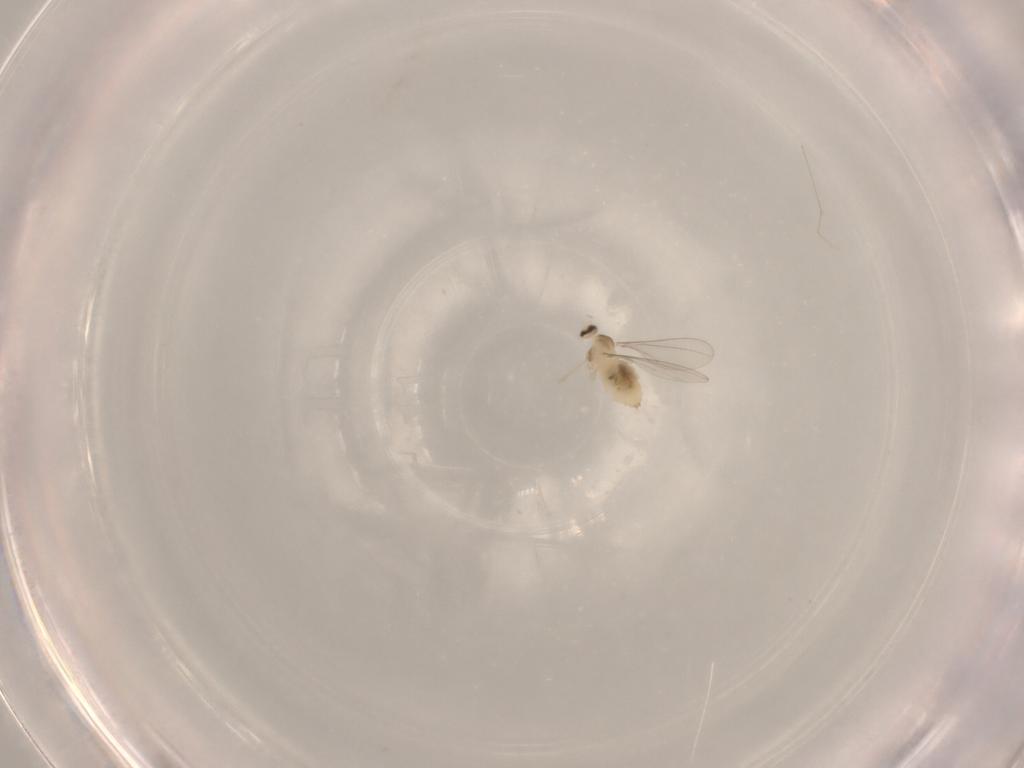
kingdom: Animalia
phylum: Arthropoda
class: Insecta
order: Diptera
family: Cecidomyiidae
